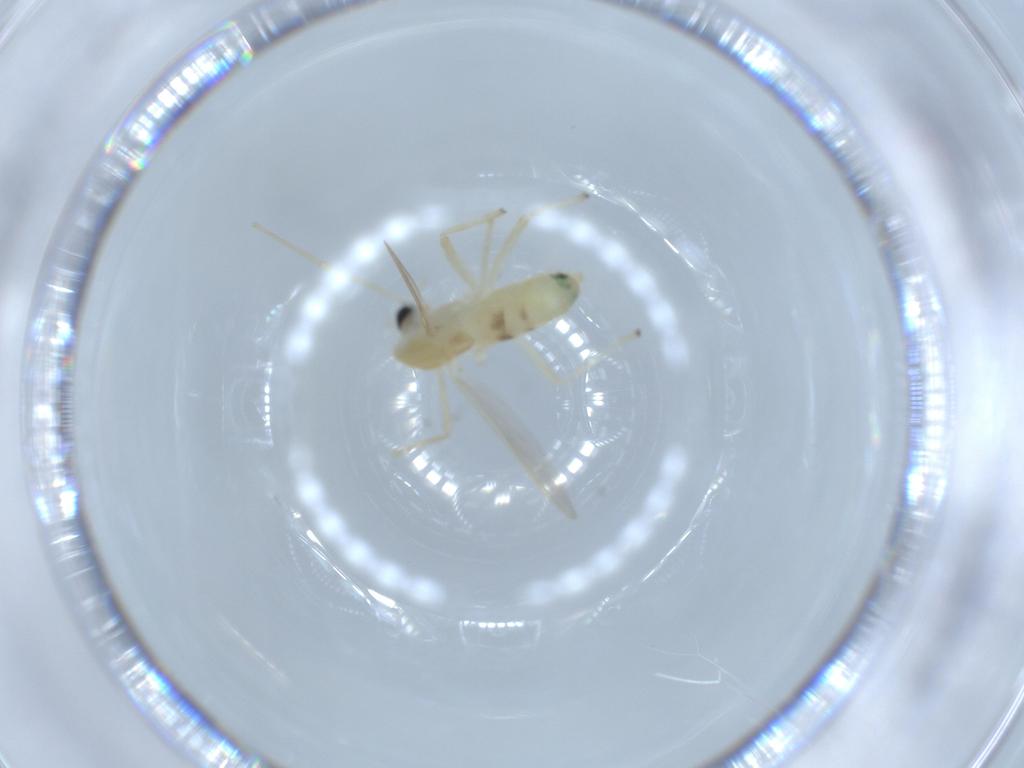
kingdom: Animalia
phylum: Arthropoda
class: Insecta
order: Diptera
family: Chironomidae
